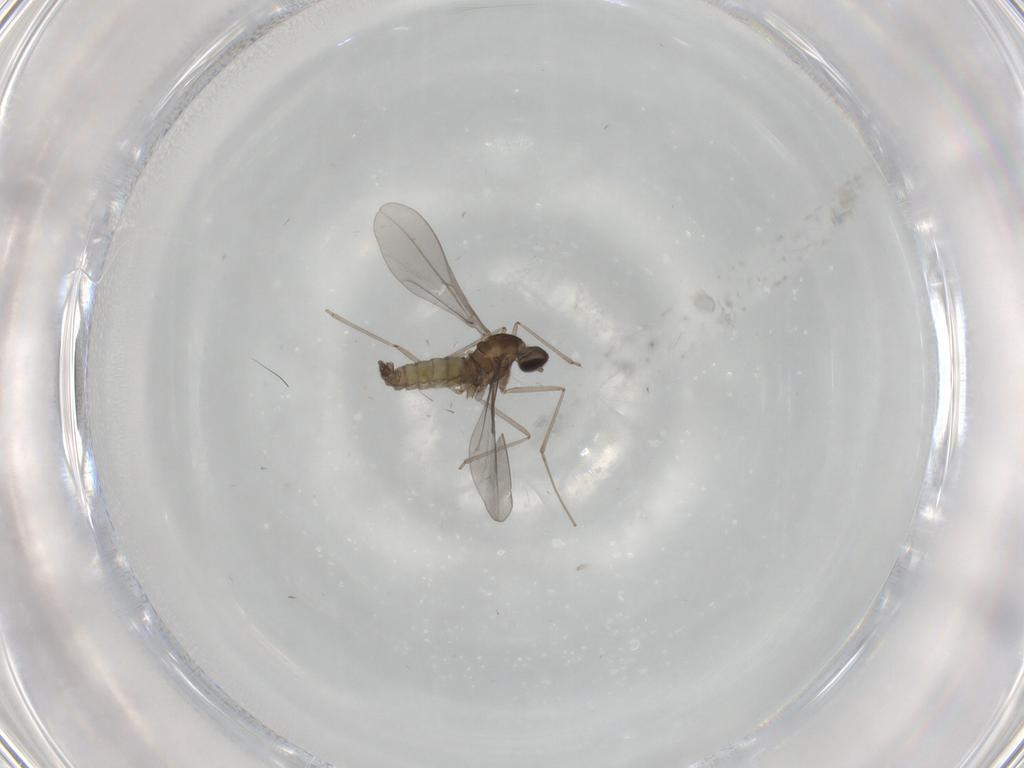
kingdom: Animalia
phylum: Arthropoda
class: Insecta
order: Diptera
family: Cecidomyiidae
